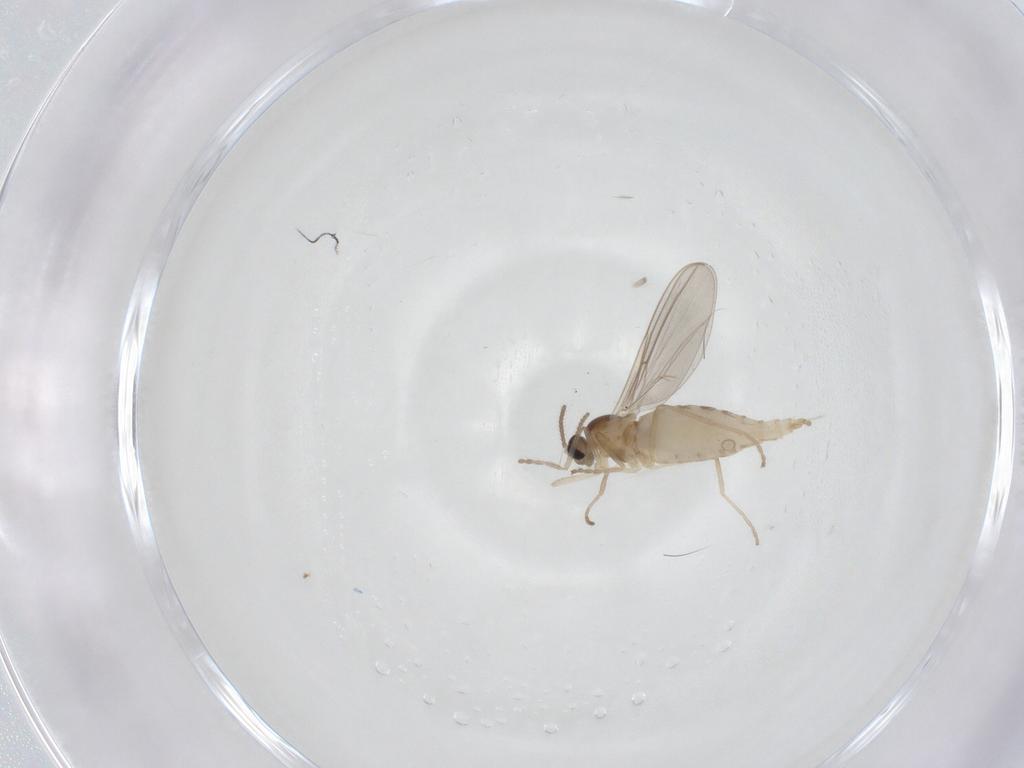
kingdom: Animalia
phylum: Arthropoda
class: Insecta
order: Diptera
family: Cecidomyiidae
